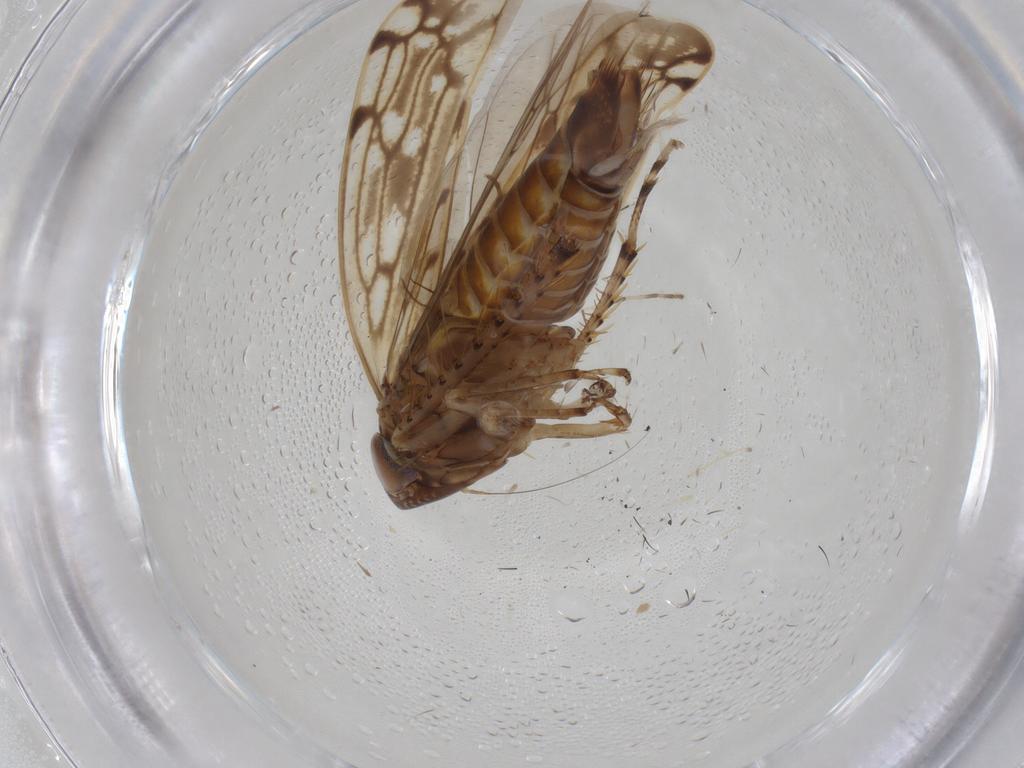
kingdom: Animalia
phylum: Arthropoda
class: Insecta
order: Hemiptera
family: Cicadellidae
